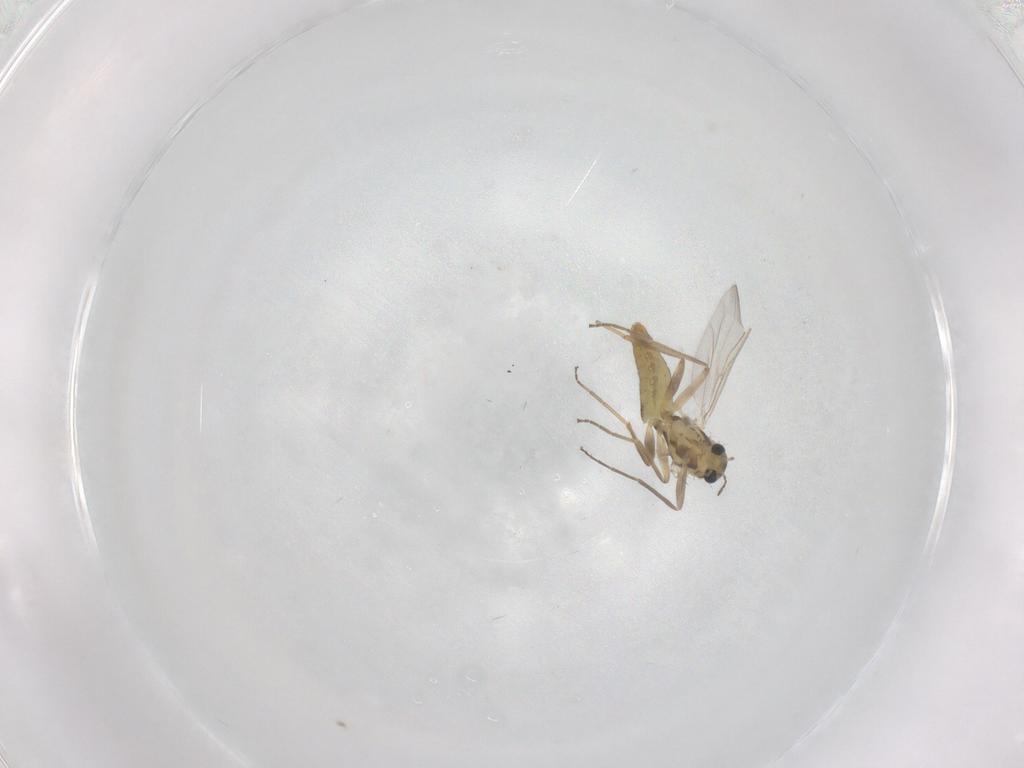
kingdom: Animalia
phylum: Arthropoda
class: Insecta
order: Diptera
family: Chironomidae
